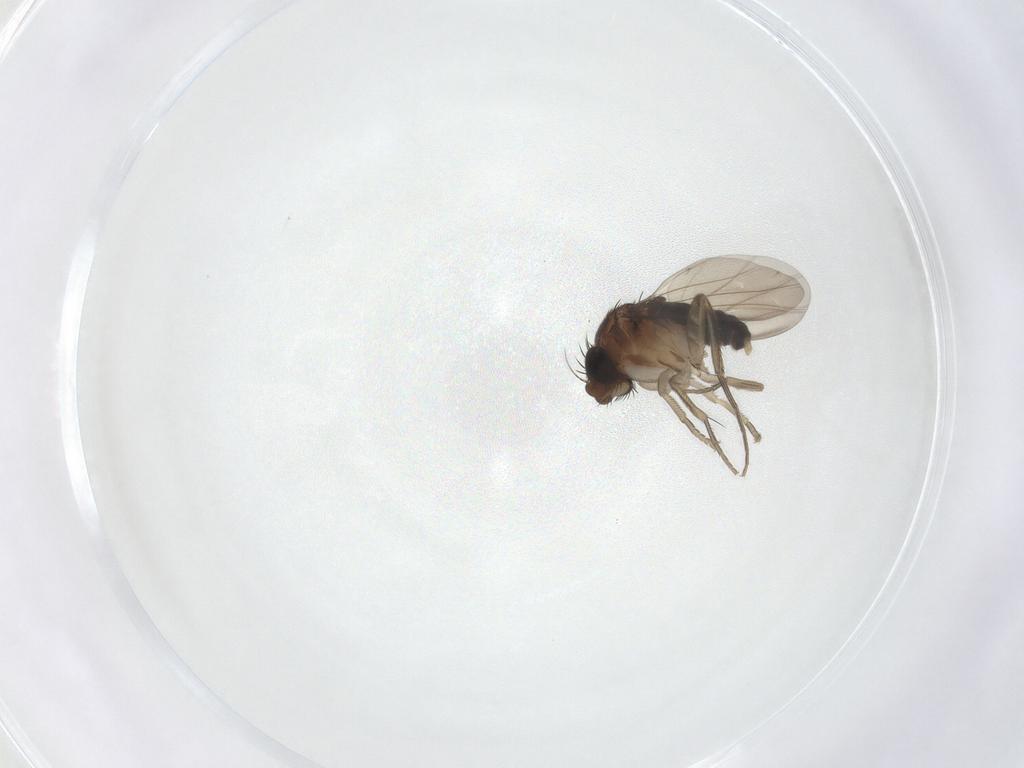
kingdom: Animalia
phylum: Arthropoda
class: Insecta
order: Diptera
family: Phoridae
